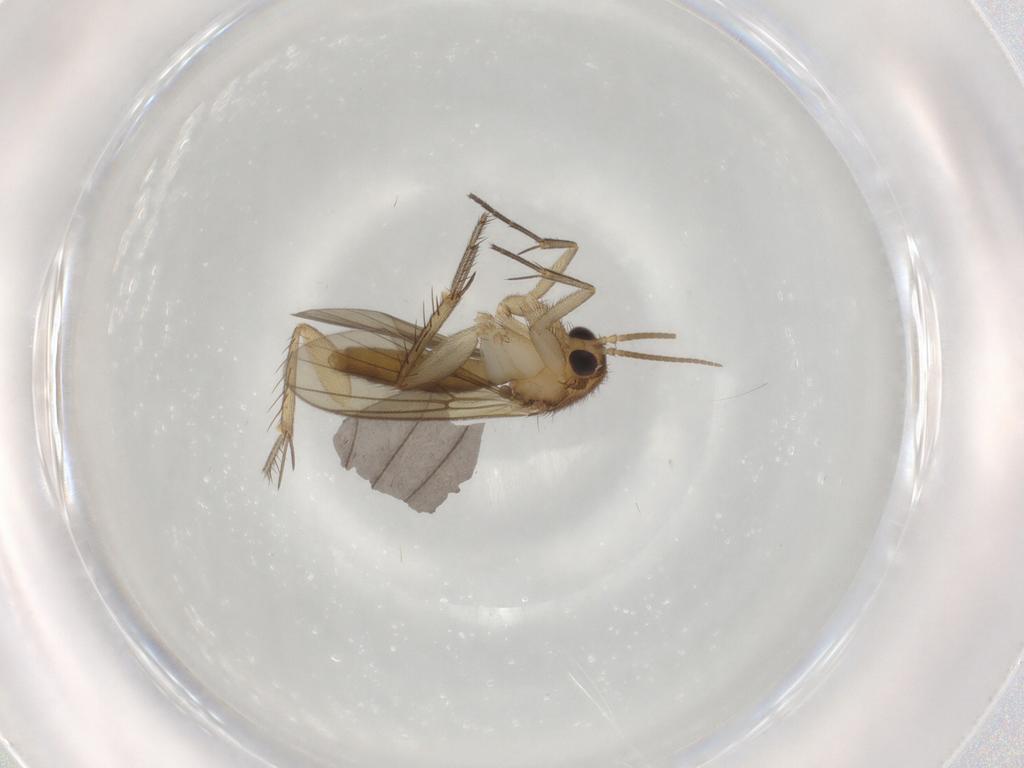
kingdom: Animalia
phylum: Arthropoda
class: Insecta
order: Diptera
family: Mycetophilidae
